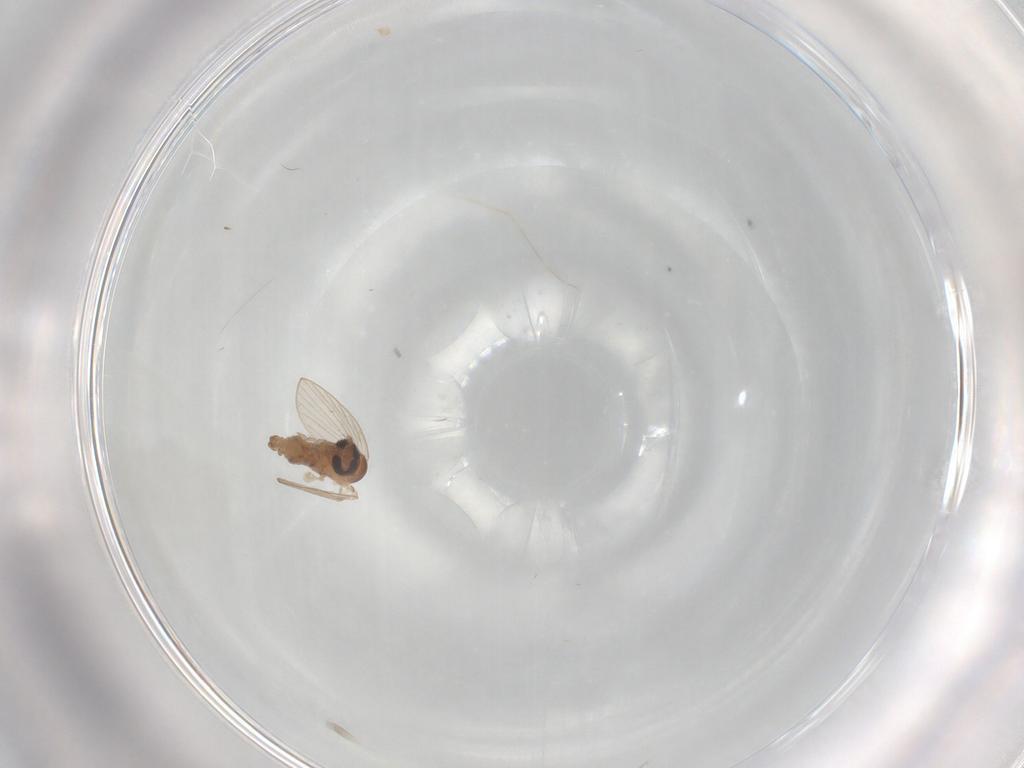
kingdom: Animalia
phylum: Arthropoda
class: Insecta
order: Diptera
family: Psychodidae
